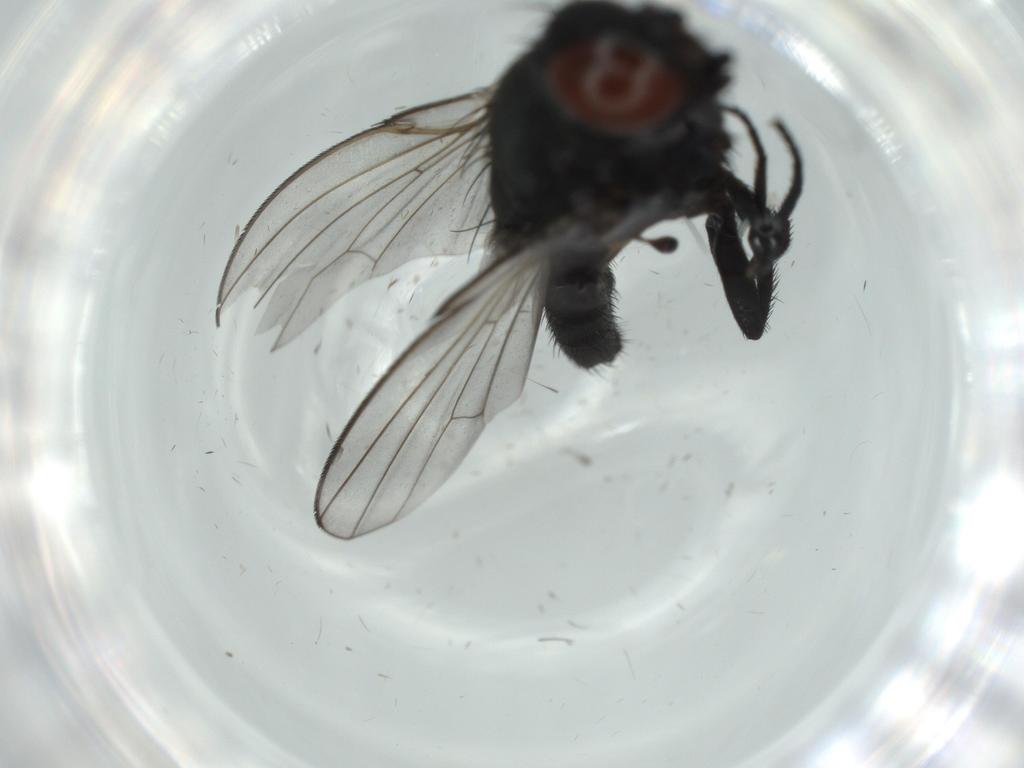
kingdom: Animalia
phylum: Arthropoda
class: Insecta
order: Diptera
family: Milichiidae
